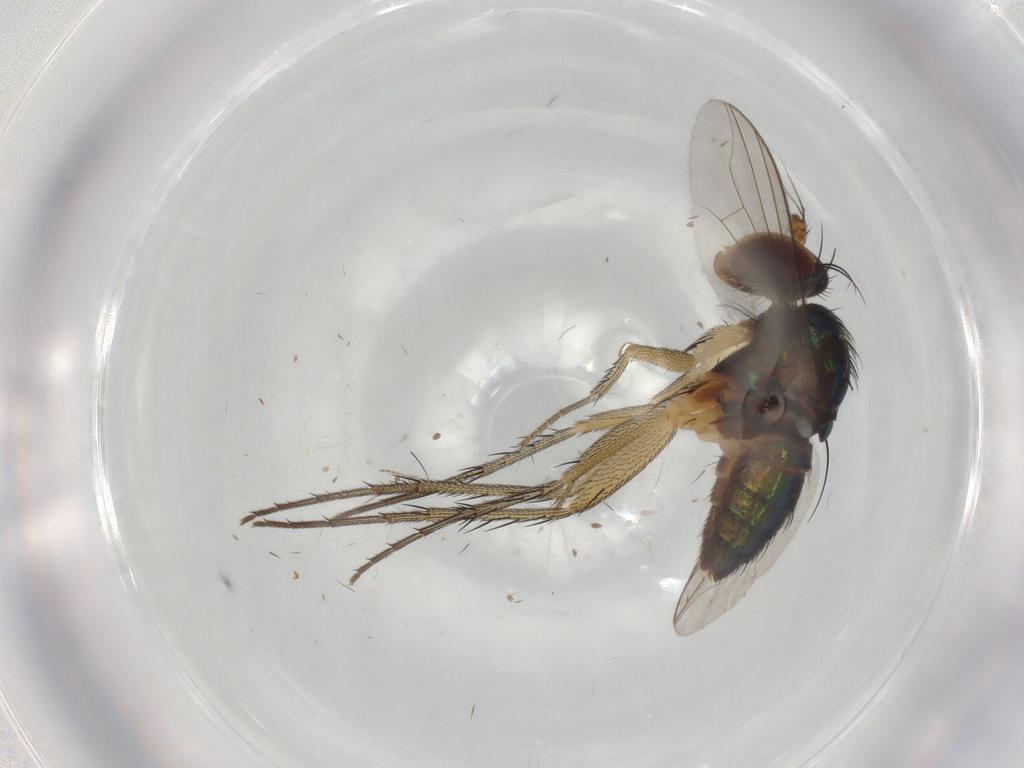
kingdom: Animalia
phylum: Arthropoda
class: Insecta
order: Diptera
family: Dolichopodidae
